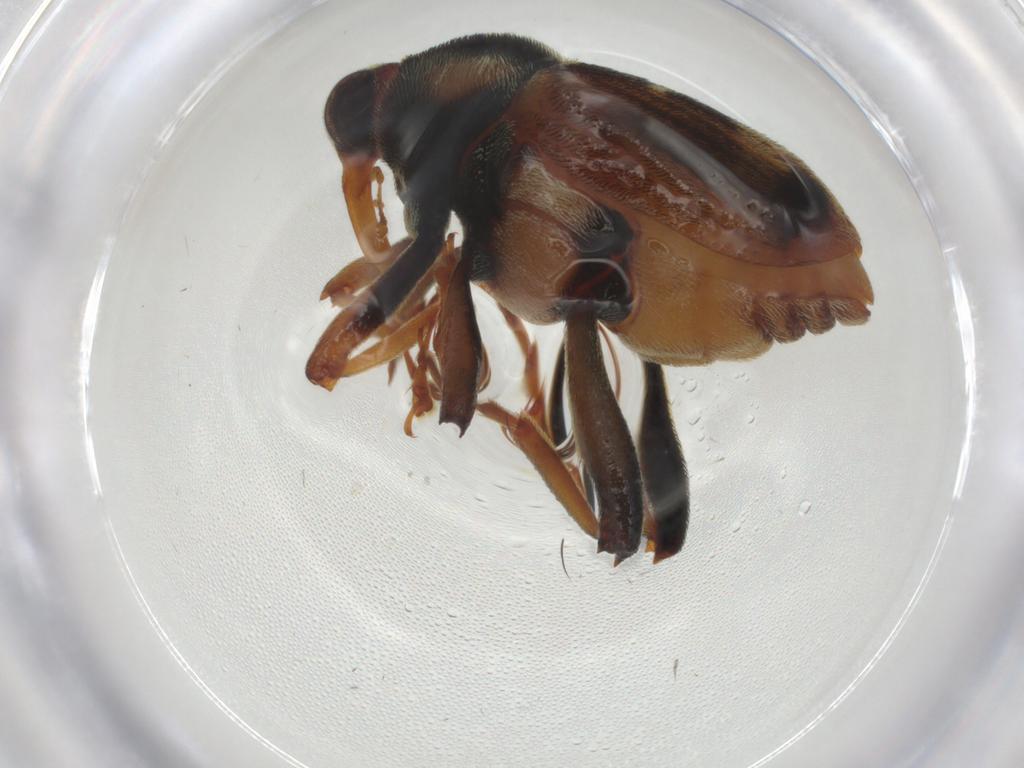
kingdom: Animalia
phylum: Arthropoda
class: Insecta
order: Coleoptera
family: Curculionidae
